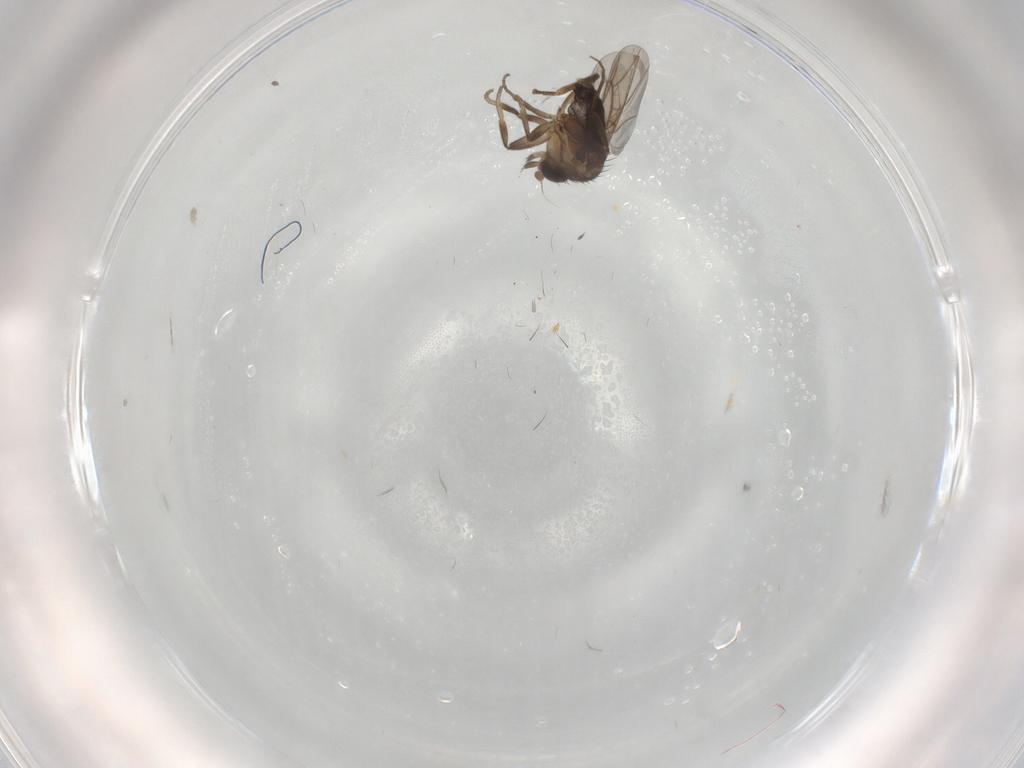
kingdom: Animalia
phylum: Arthropoda
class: Insecta
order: Diptera
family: Phoridae
